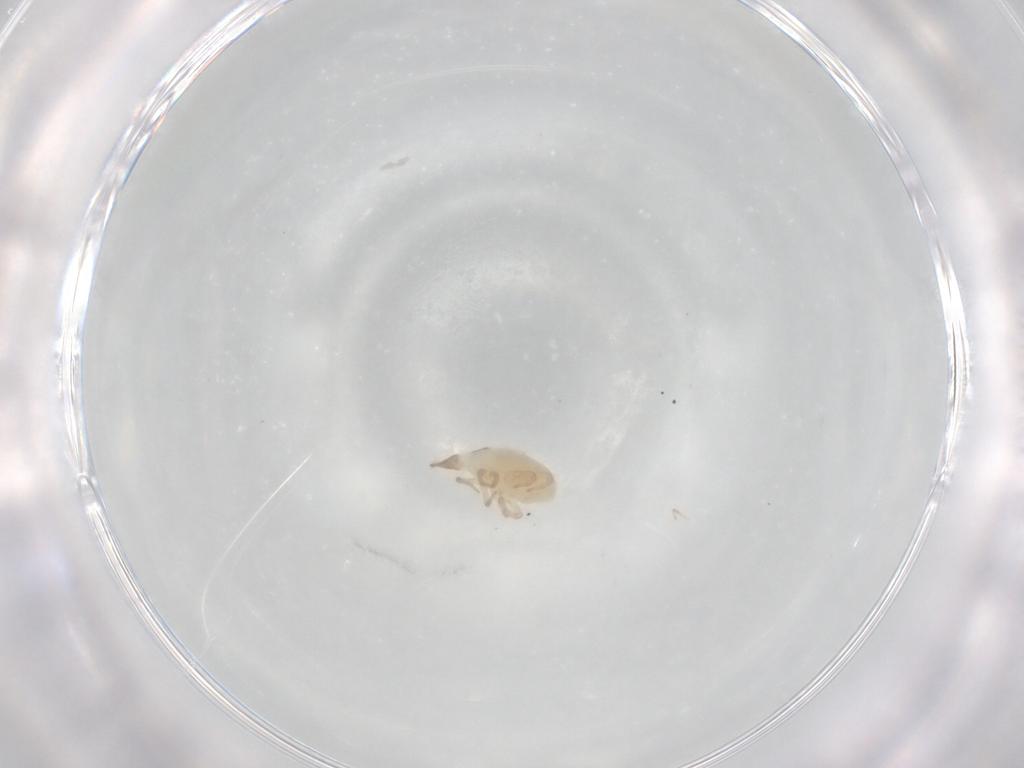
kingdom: Animalia
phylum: Arthropoda
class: Arachnida
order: Trombidiformes
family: Bdellidae
